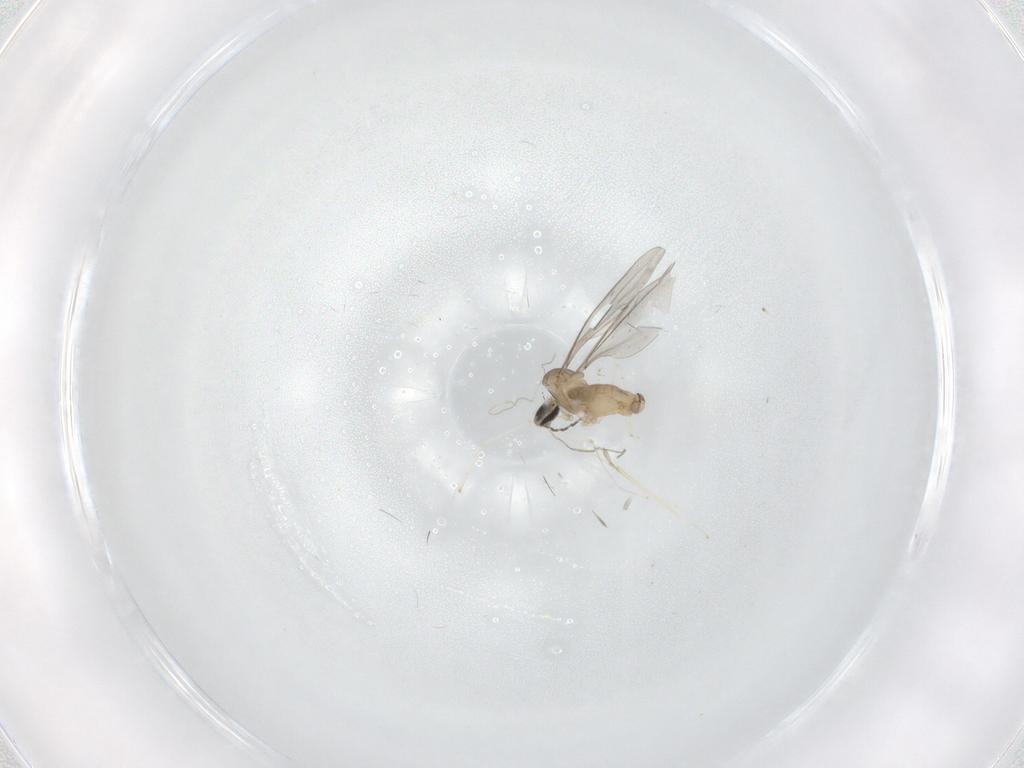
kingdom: Animalia
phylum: Arthropoda
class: Insecta
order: Diptera
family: Cecidomyiidae
